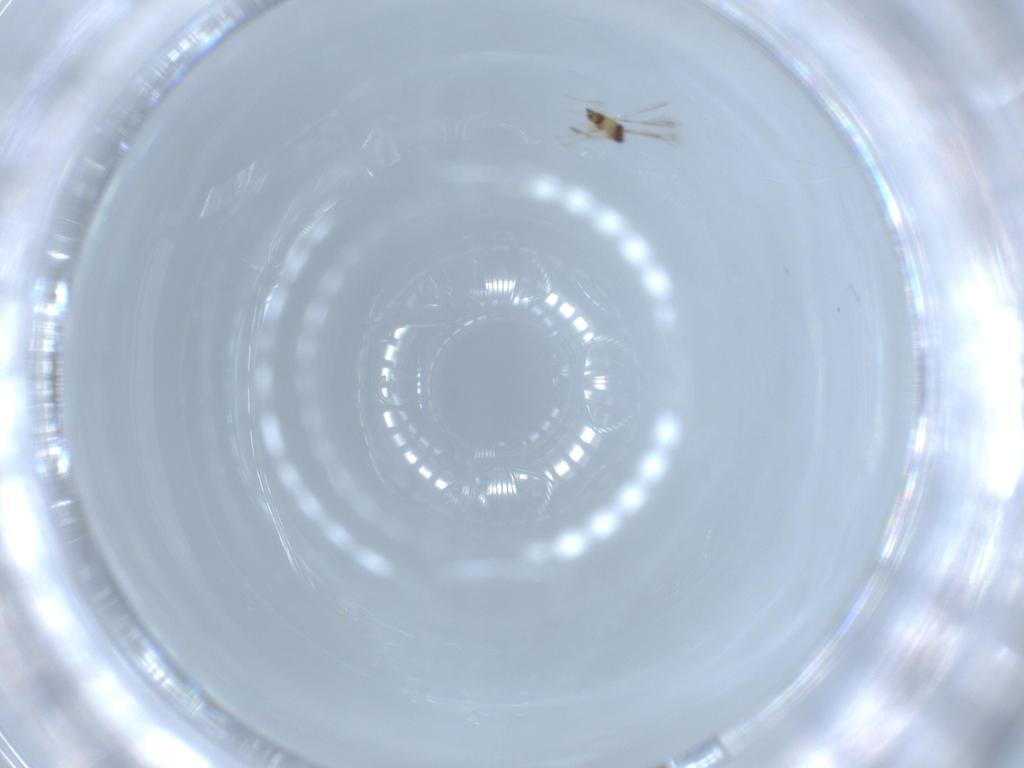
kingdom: Animalia
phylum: Arthropoda
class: Insecta
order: Hymenoptera
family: Mymaridae
